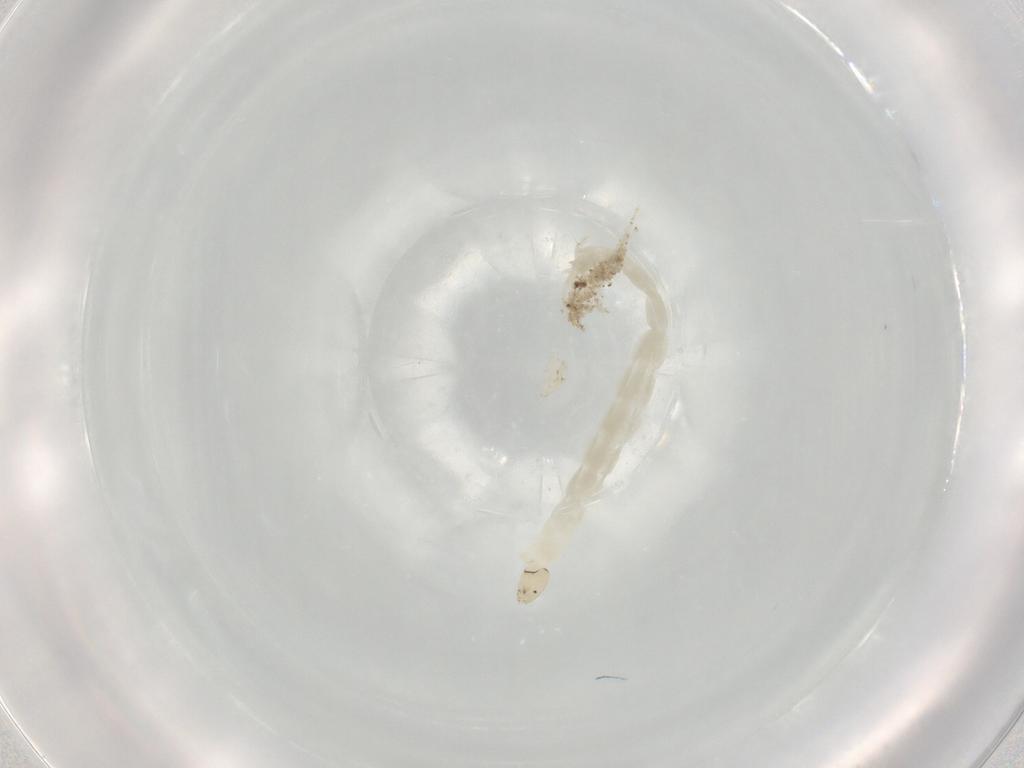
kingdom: Animalia
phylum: Arthropoda
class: Insecta
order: Diptera
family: Chironomidae
